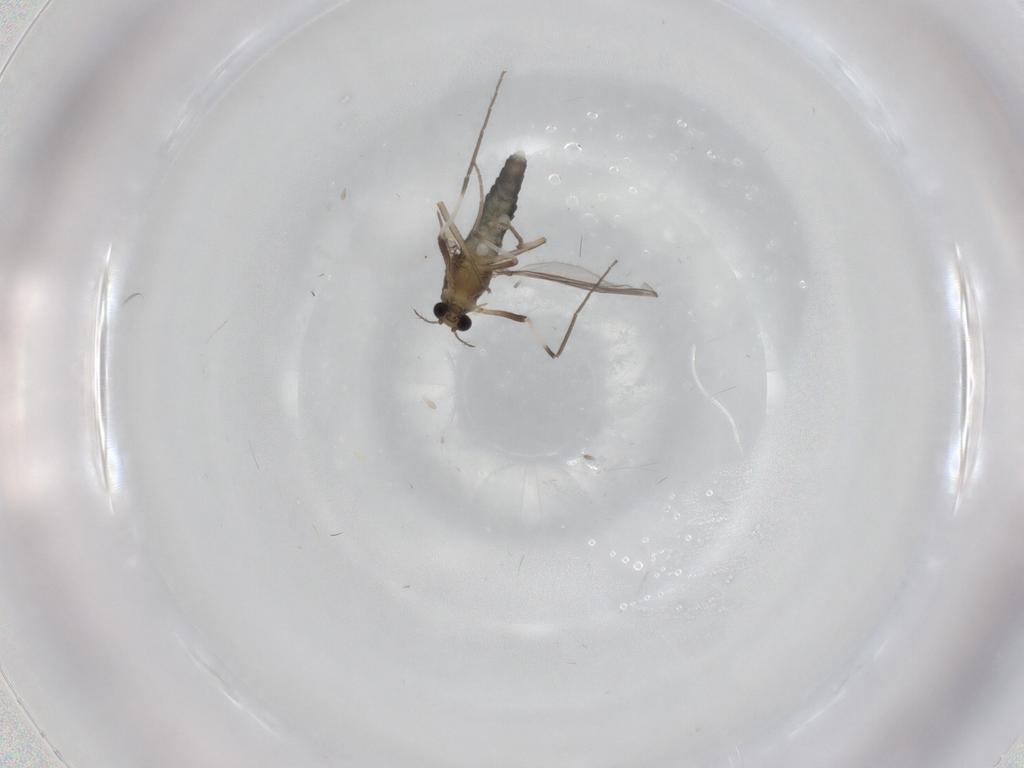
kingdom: Animalia
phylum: Arthropoda
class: Insecta
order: Diptera
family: Chironomidae
